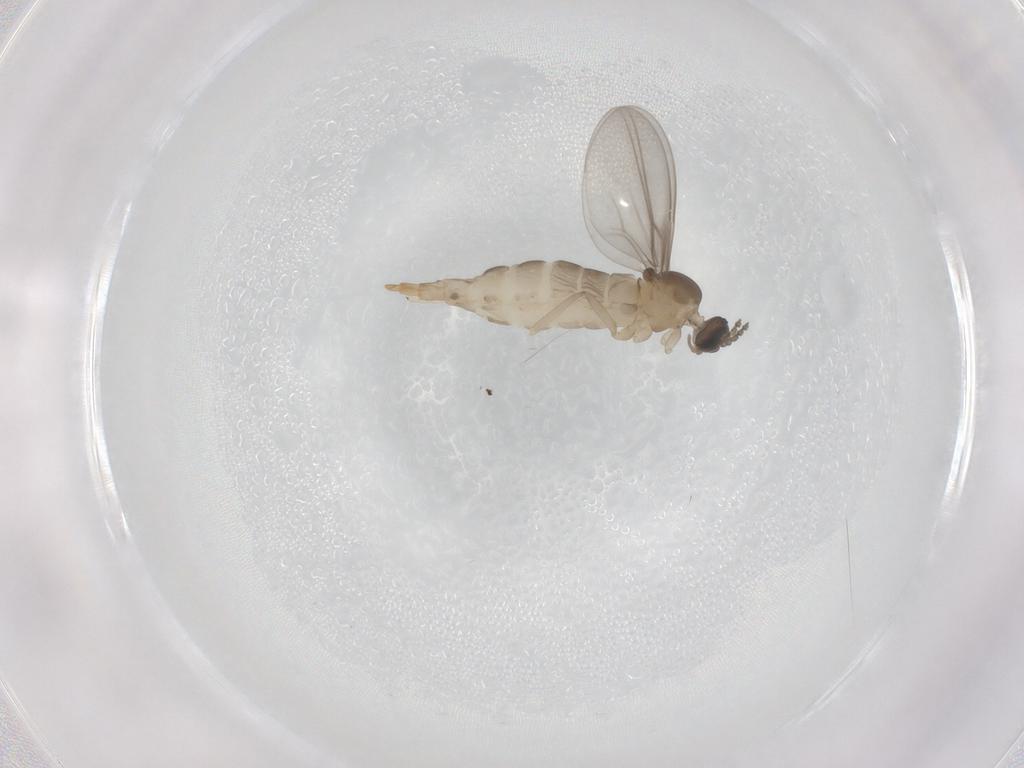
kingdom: Animalia
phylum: Arthropoda
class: Insecta
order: Diptera
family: Cecidomyiidae
